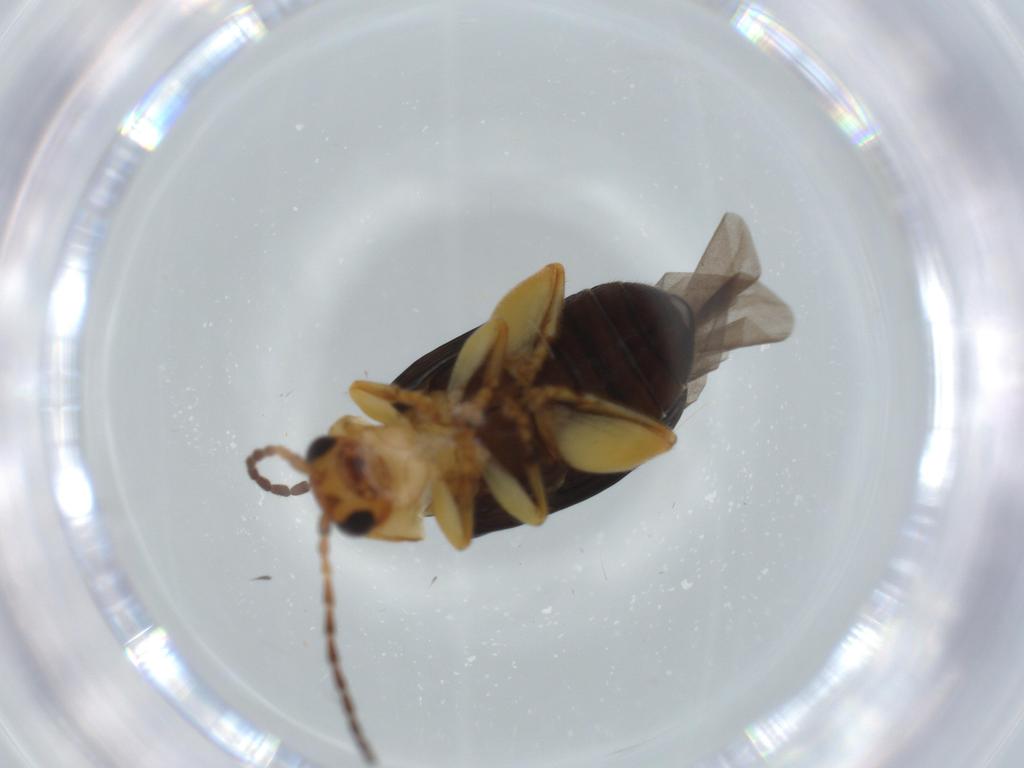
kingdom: Animalia
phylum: Arthropoda
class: Insecta
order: Coleoptera
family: Chrysomelidae
